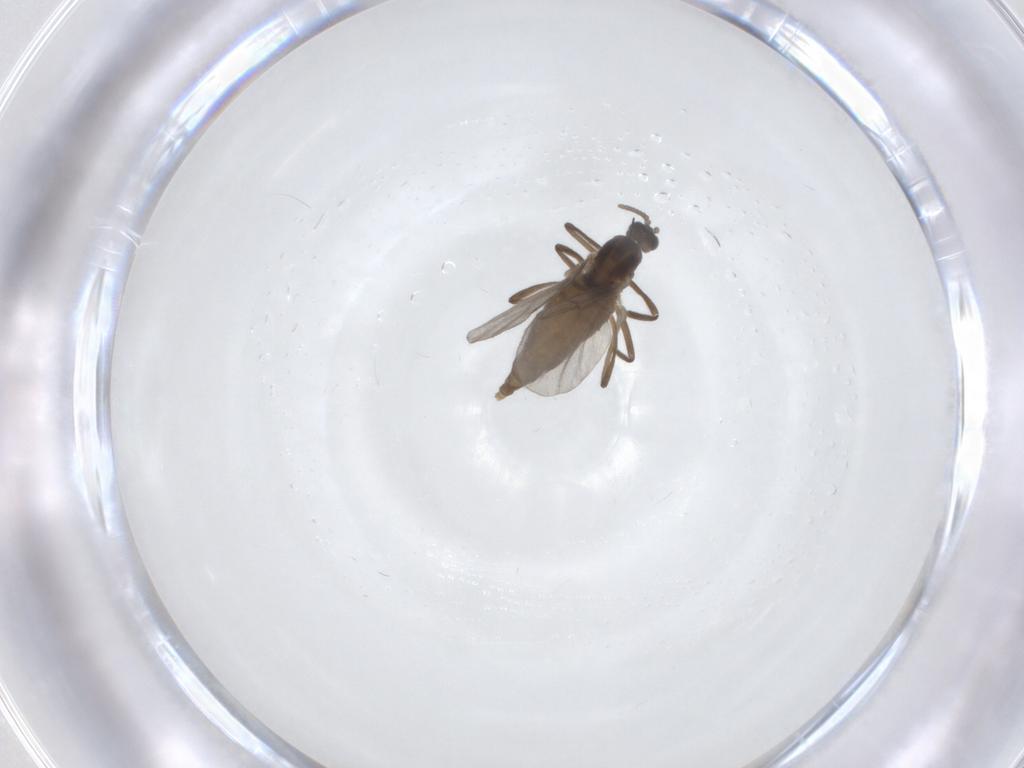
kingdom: Animalia
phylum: Arthropoda
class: Insecta
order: Diptera
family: Cecidomyiidae
